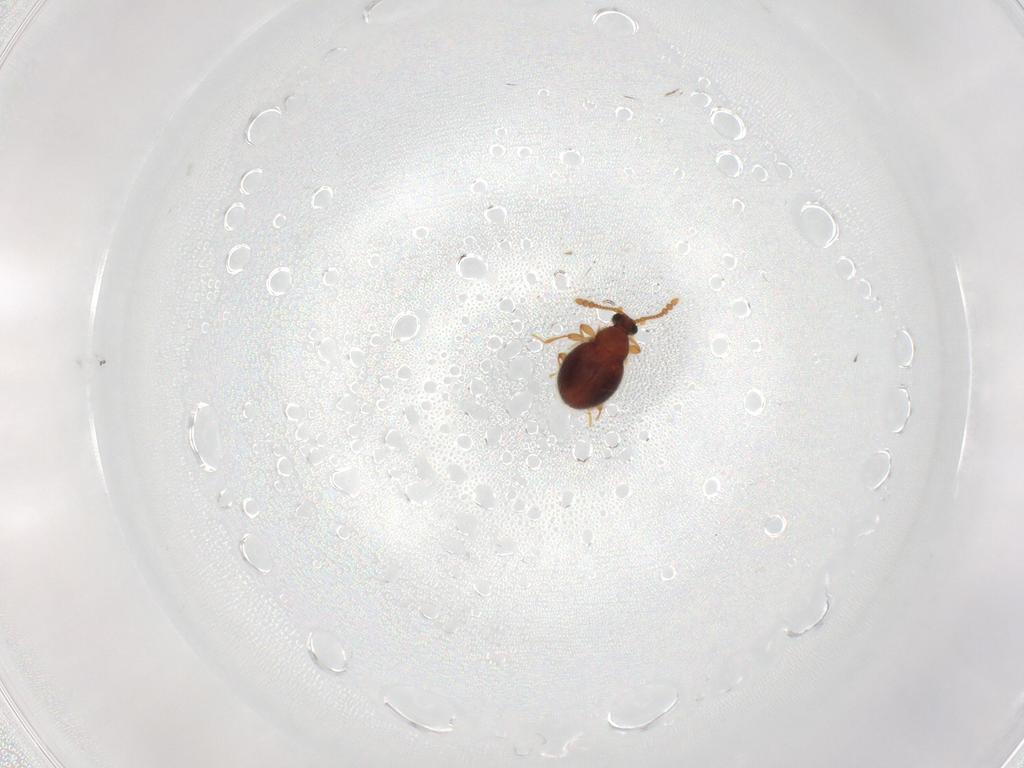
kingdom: Animalia
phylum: Arthropoda
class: Insecta
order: Coleoptera
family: Staphylinidae
